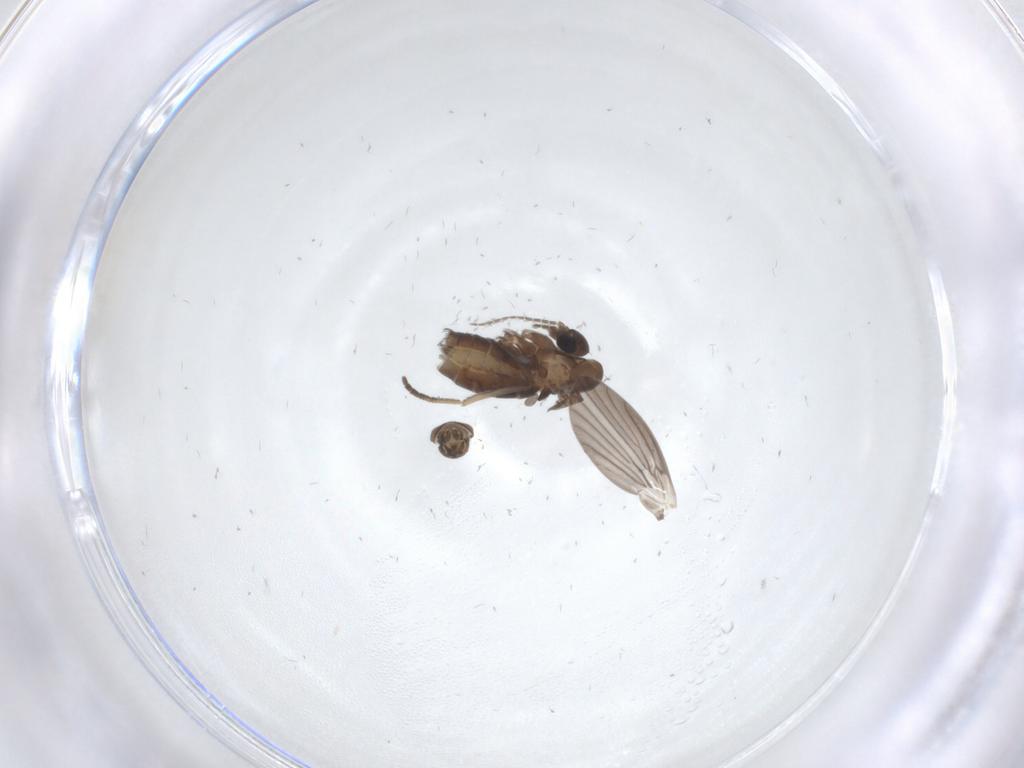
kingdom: Animalia
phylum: Arthropoda
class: Insecta
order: Diptera
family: Psychodidae
